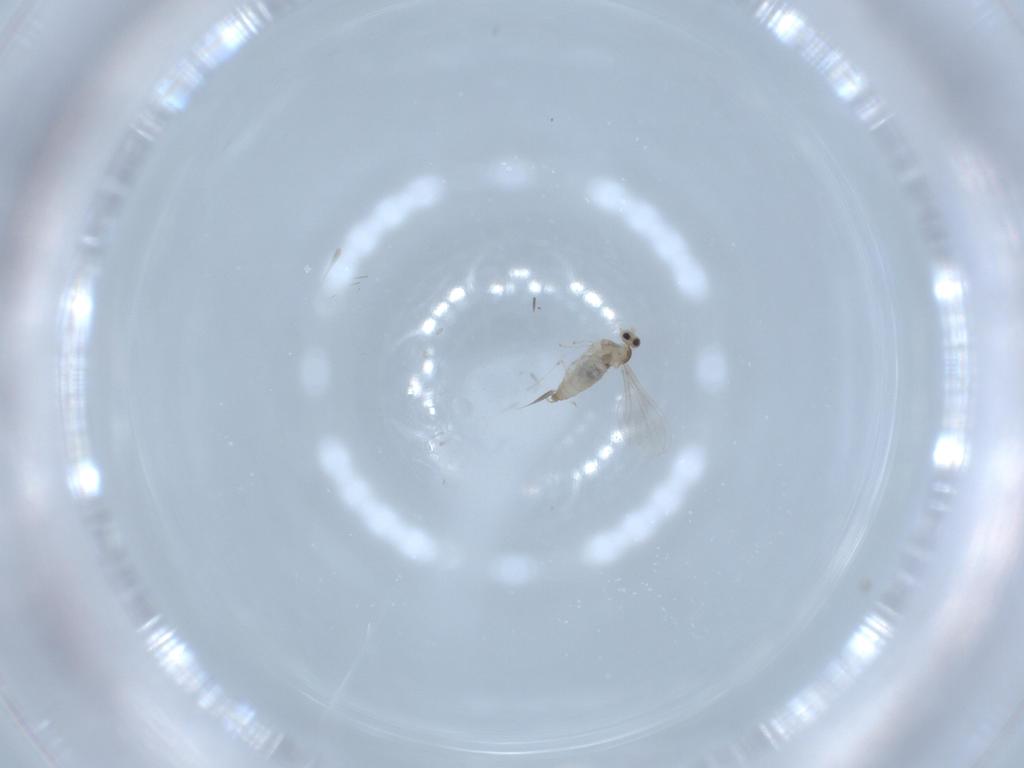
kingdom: Animalia
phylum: Arthropoda
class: Insecta
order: Diptera
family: Cecidomyiidae
